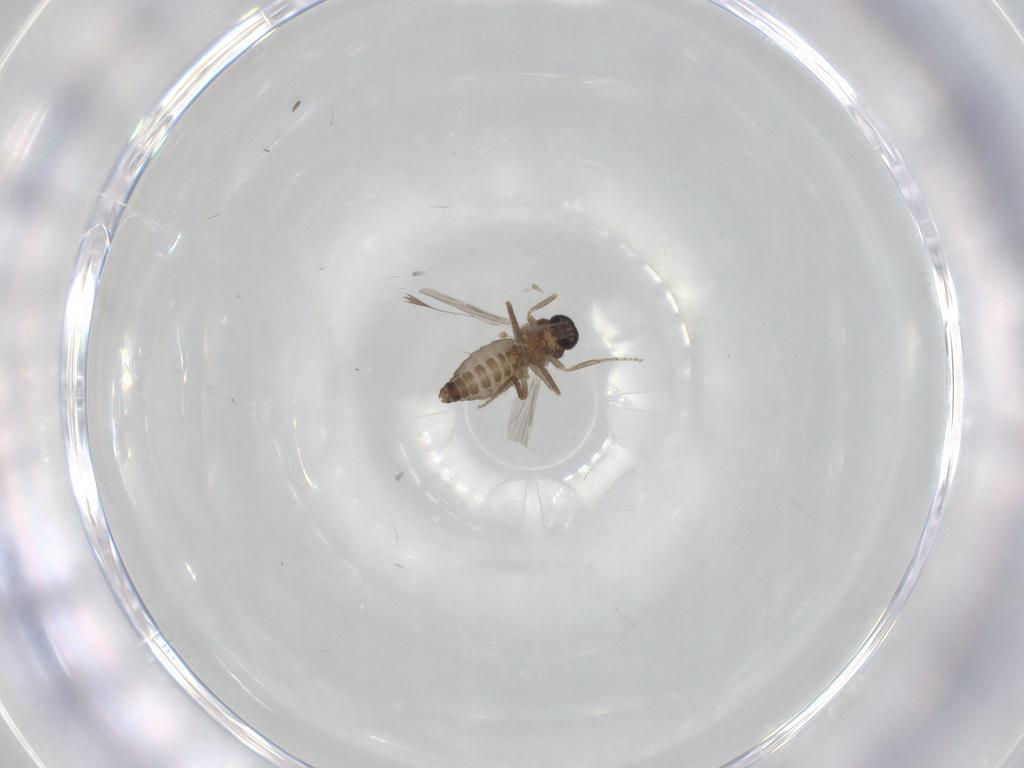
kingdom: Animalia
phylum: Arthropoda
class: Insecta
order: Diptera
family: Ceratopogonidae
